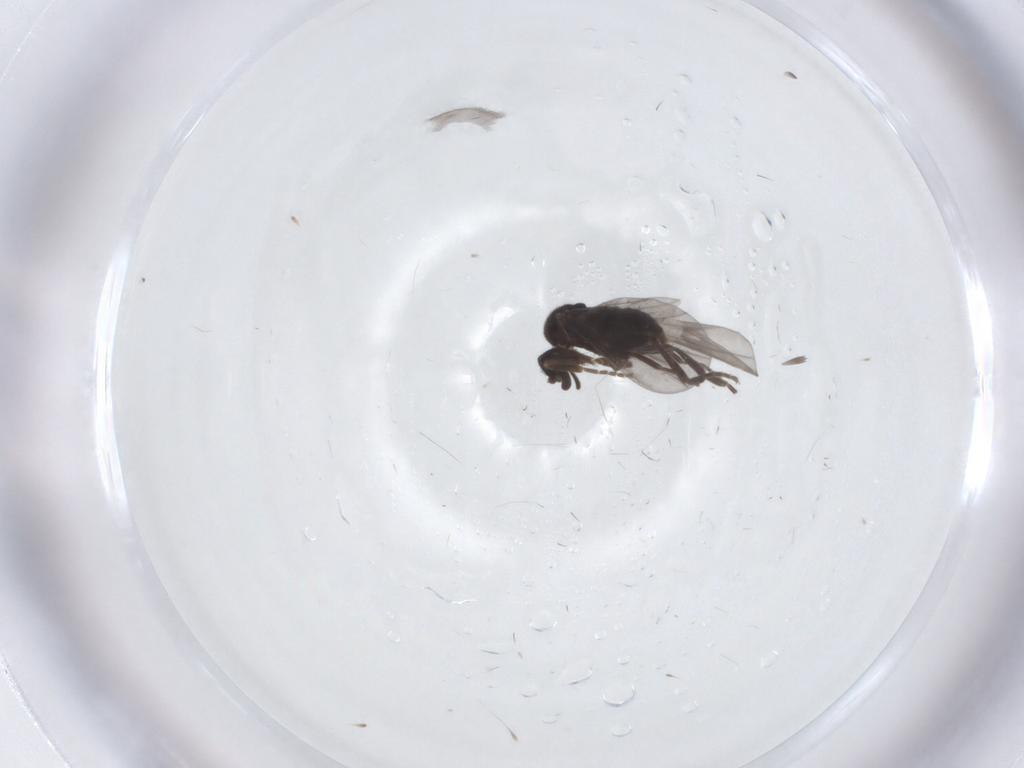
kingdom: Animalia
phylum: Arthropoda
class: Insecta
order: Diptera
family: Ceratopogonidae
